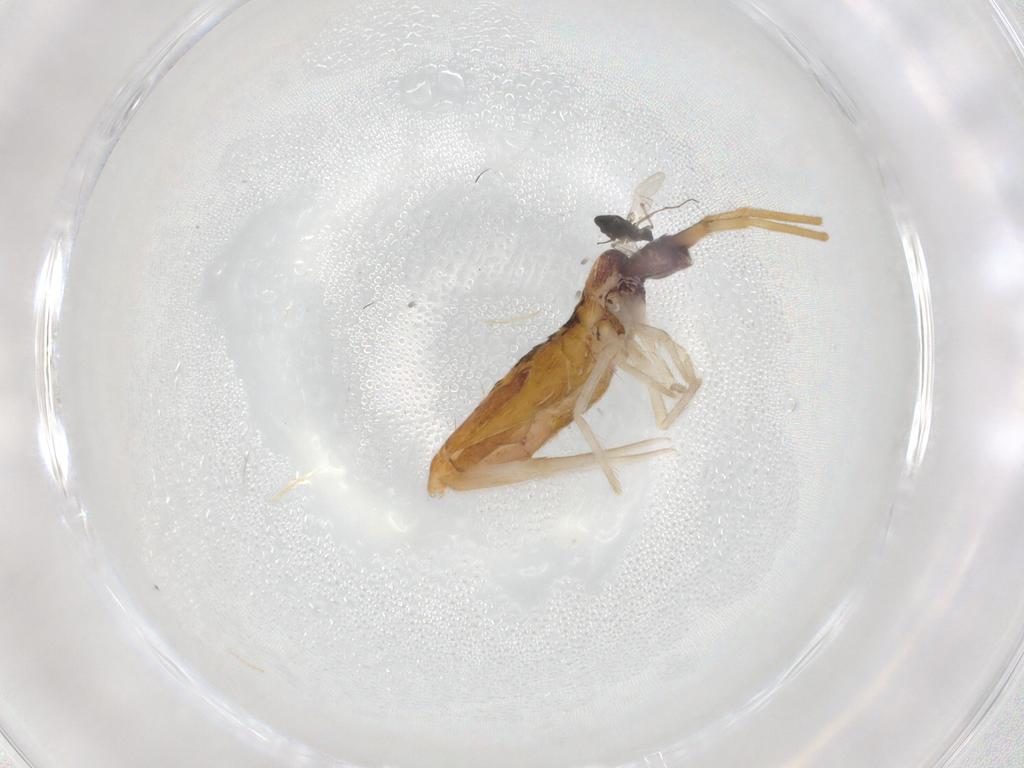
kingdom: Animalia
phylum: Arthropoda
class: Collembola
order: Entomobryomorpha
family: Entomobryidae
